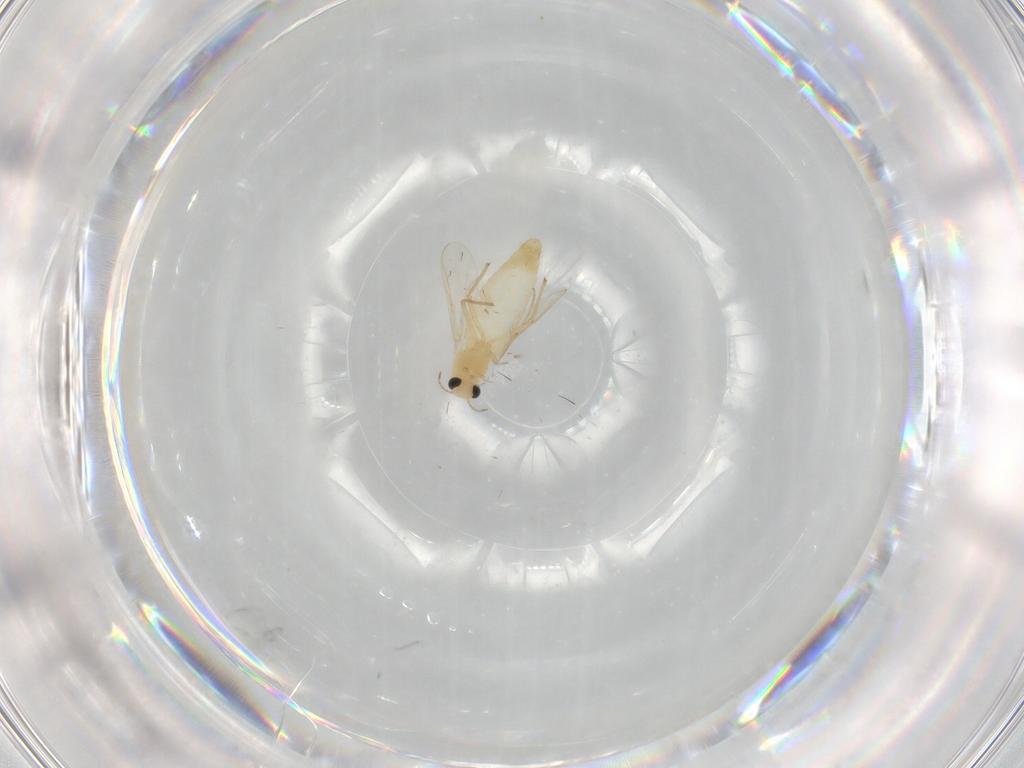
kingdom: Animalia
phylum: Arthropoda
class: Insecta
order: Diptera
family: Chironomidae
